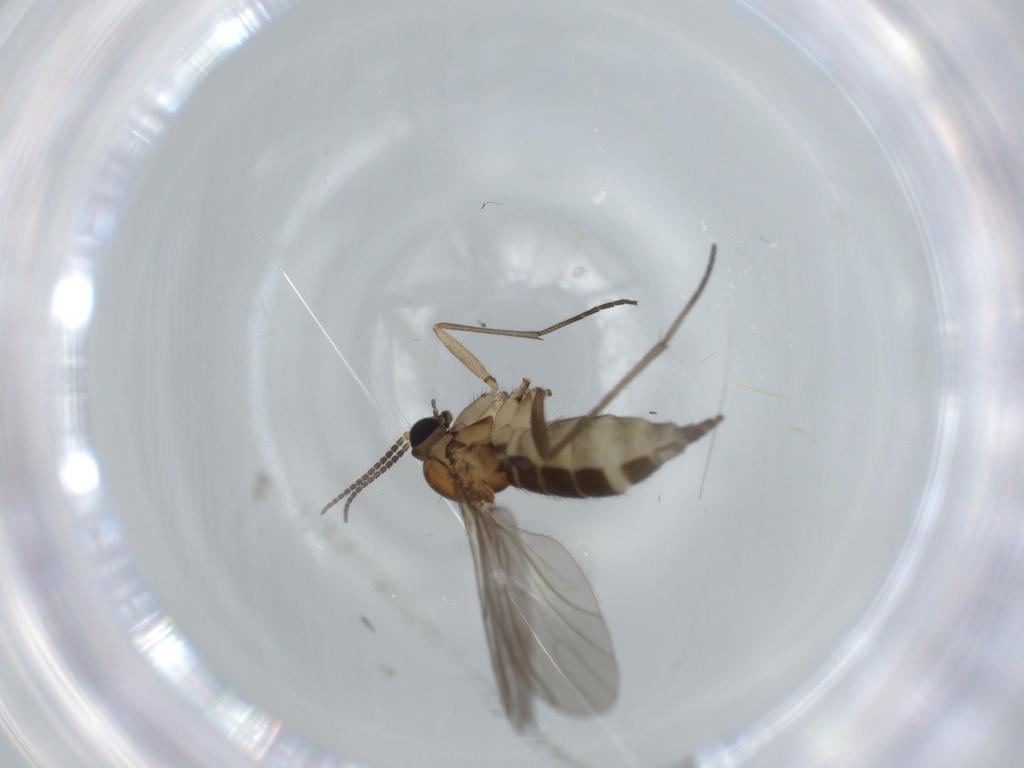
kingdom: Animalia
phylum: Arthropoda
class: Insecta
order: Diptera
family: Sciaridae
